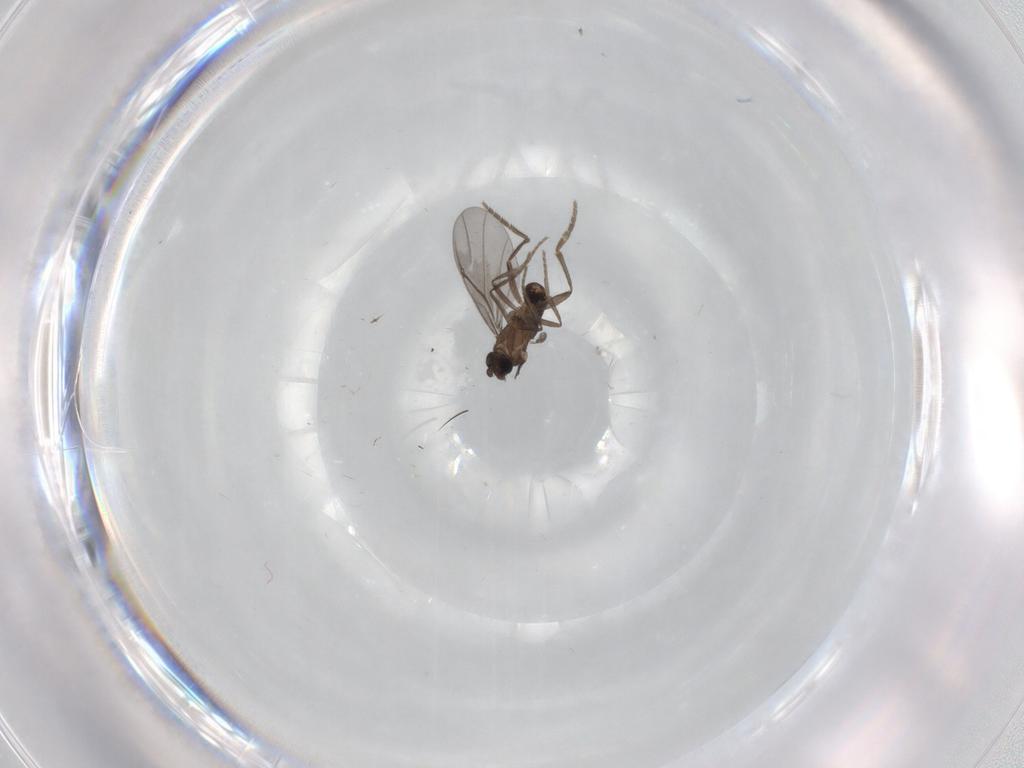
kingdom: Animalia
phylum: Arthropoda
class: Insecta
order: Diptera
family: Phoridae
